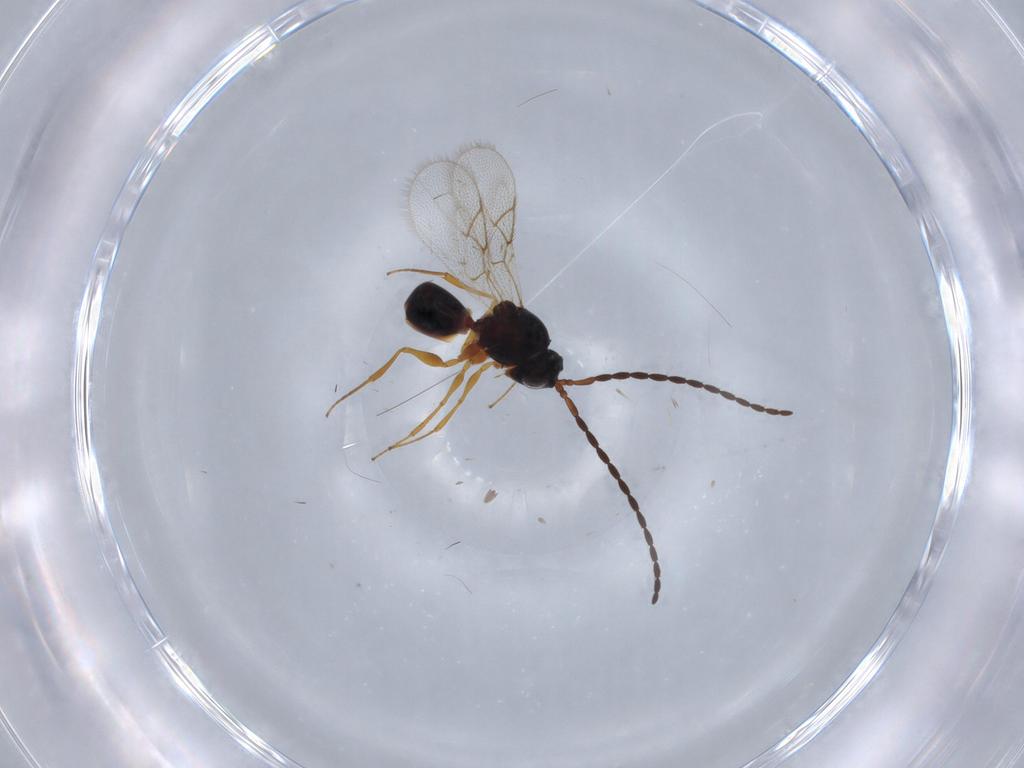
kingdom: Animalia
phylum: Arthropoda
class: Insecta
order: Hymenoptera
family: Figitidae
